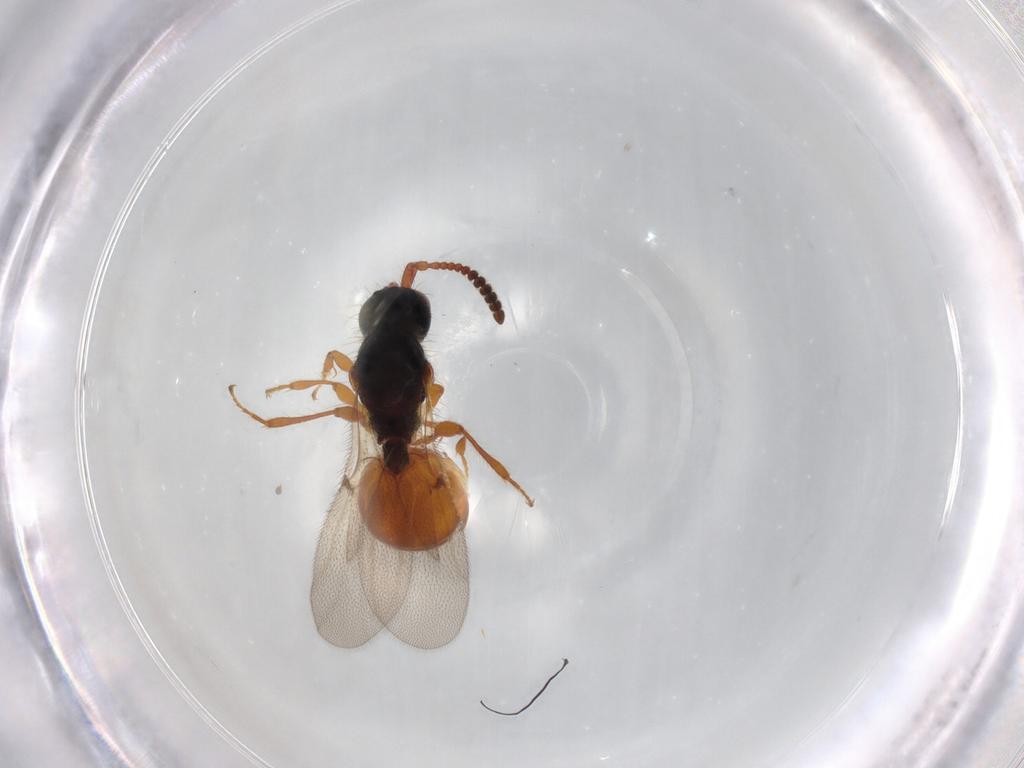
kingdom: Animalia
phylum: Arthropoda
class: Insecta
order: Hymenoptera
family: Diapriidae
